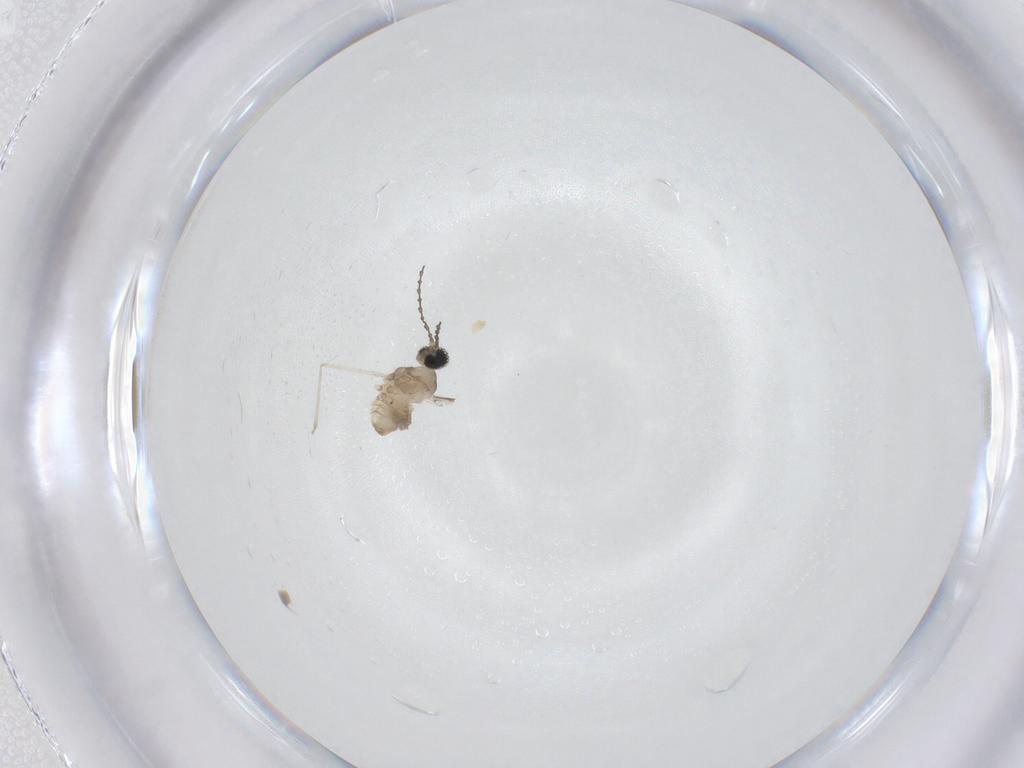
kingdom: Animalia
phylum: Arthropoda
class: Insecta
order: Diptera
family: Cecidomyiidae
